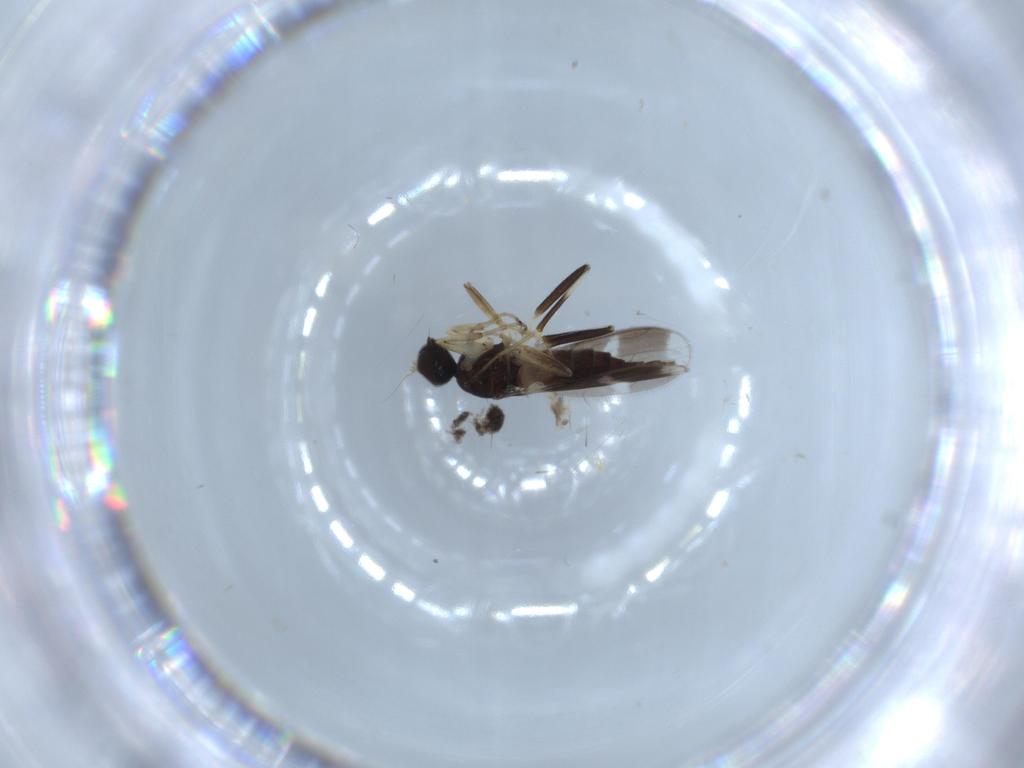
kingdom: Animalia
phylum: Arthropoda
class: Insecta
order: Diptera
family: Hybotidae
